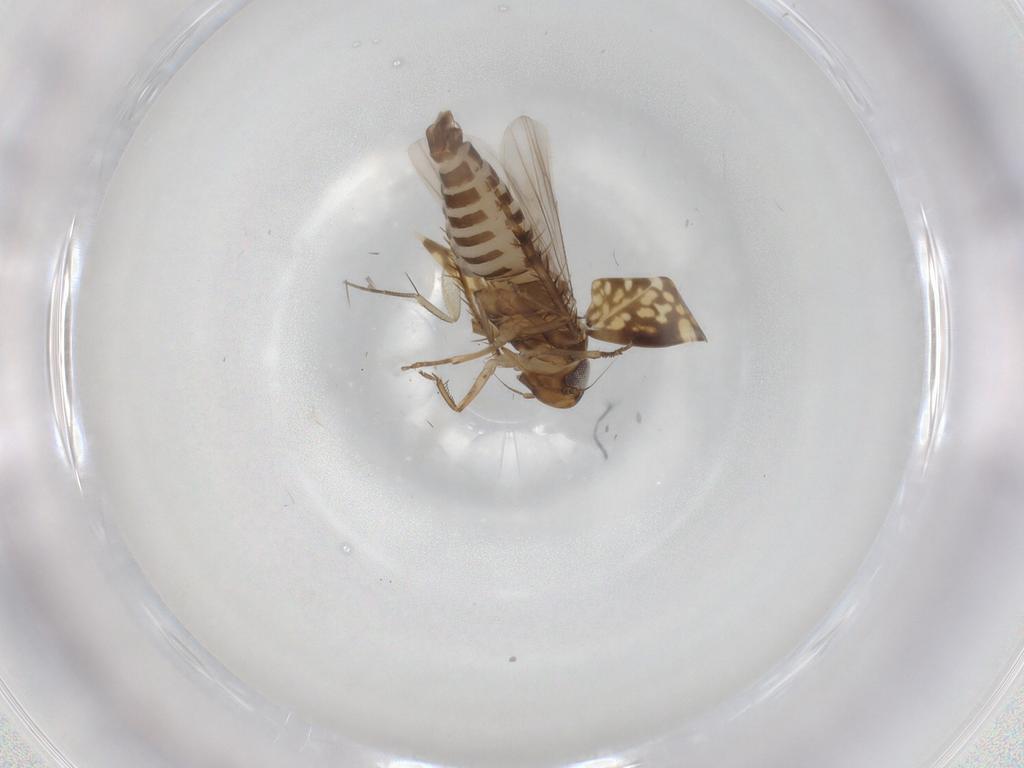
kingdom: Animalia
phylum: Arthropoda
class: Insecta
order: Hemiptera
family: Cicadellidae
